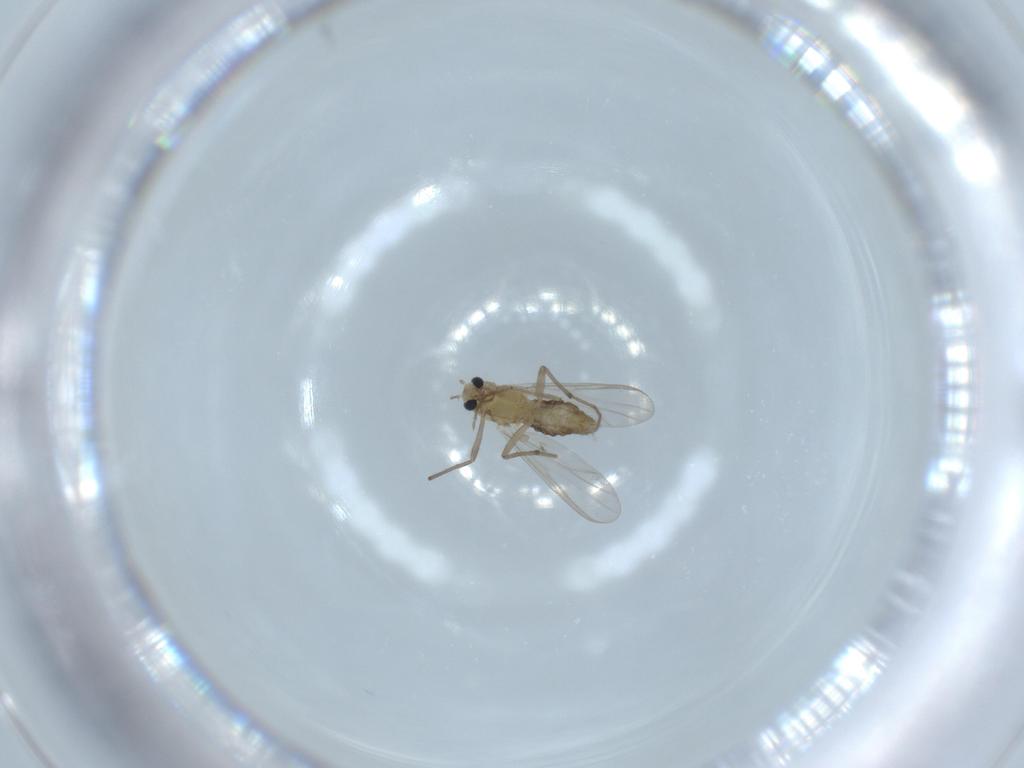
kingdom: Animalia
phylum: Arthropoda
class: Insecta
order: Diptera
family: Chironomidae
